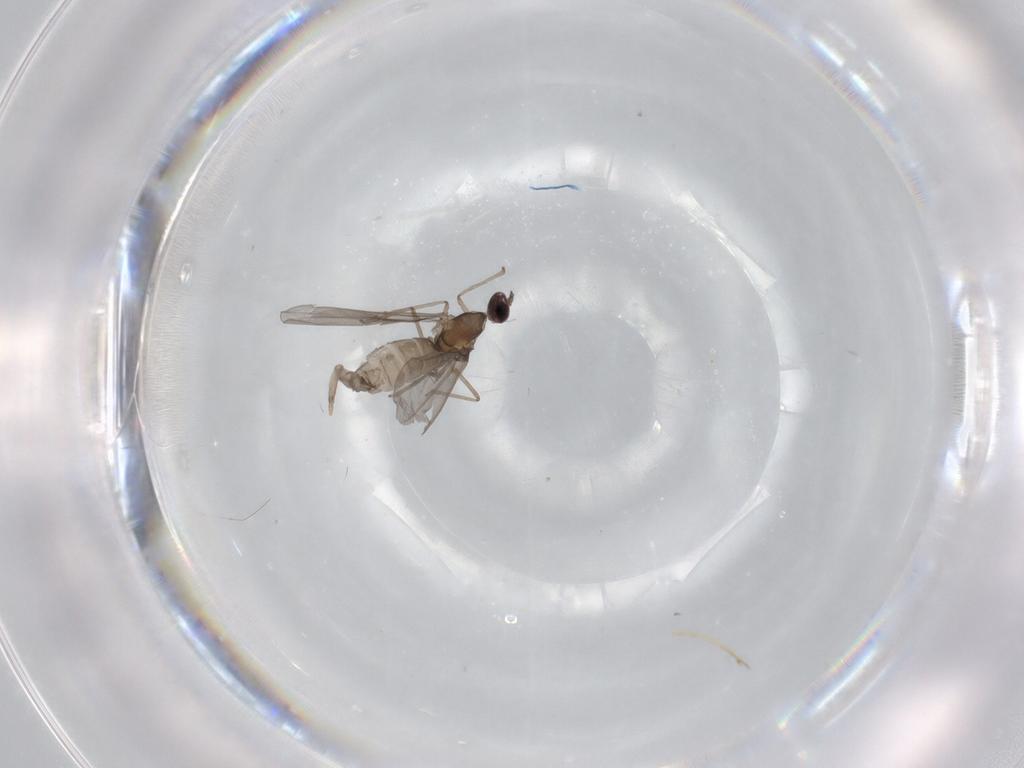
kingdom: Animalia
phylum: Arthropoda
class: Insecta
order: Diptera
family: Cecidomyiidae
